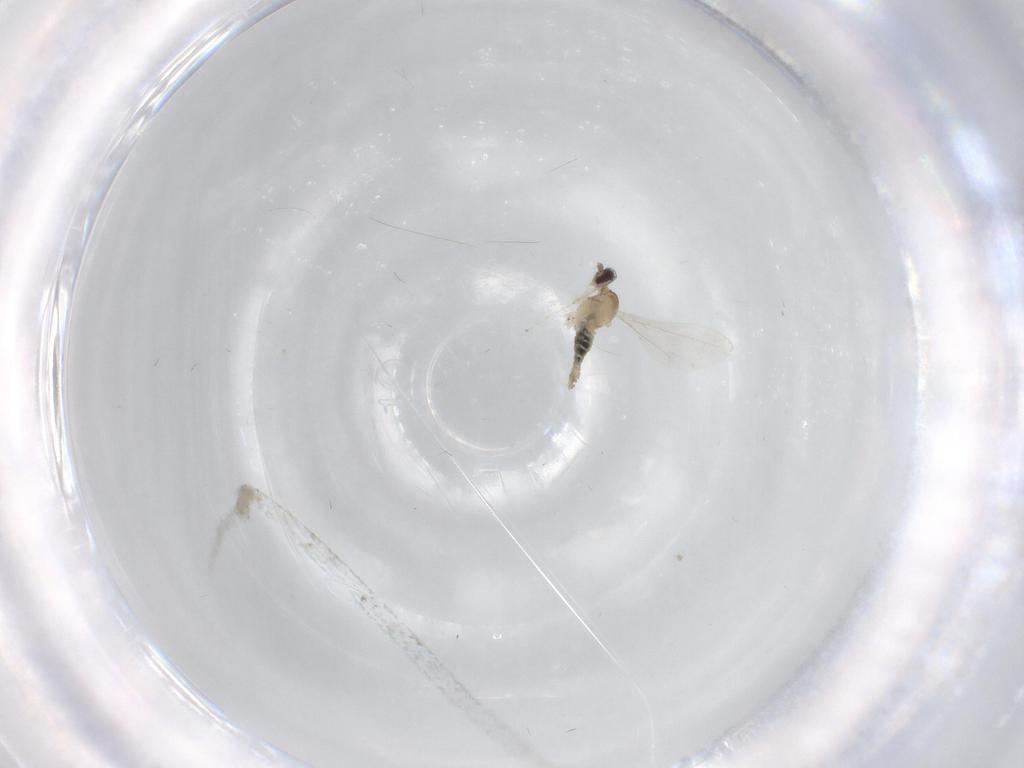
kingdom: Animalia
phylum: Arthropoda
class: Insecta
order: Diptera
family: Cecidomyiidae
